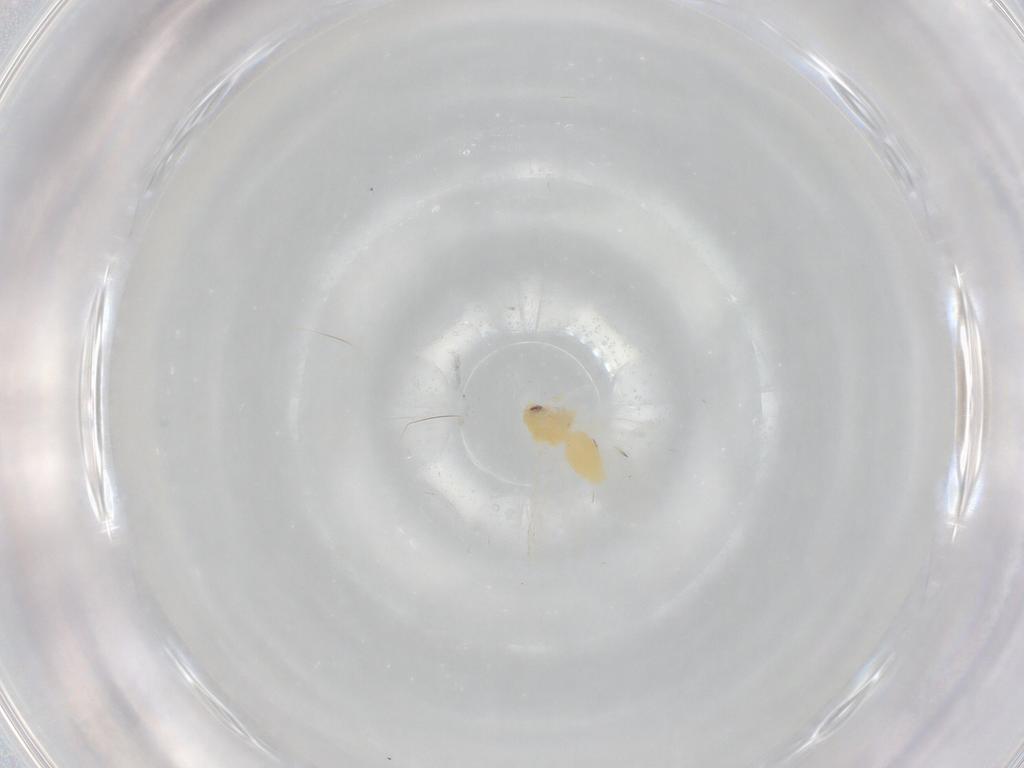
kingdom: Animalia
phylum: Arthropoda
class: Insecta
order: Hemiptera
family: Aleyrodidae
